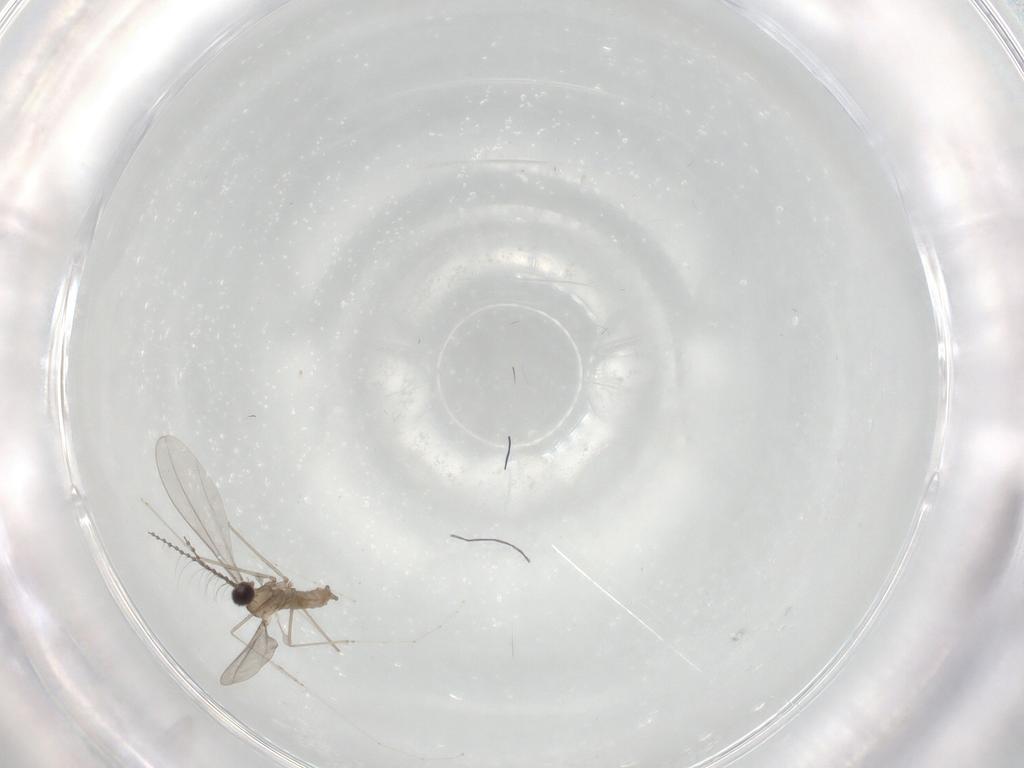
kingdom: Animalia
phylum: Arthropoda
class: Insecta
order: Diptera
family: Cecidomyiidae
